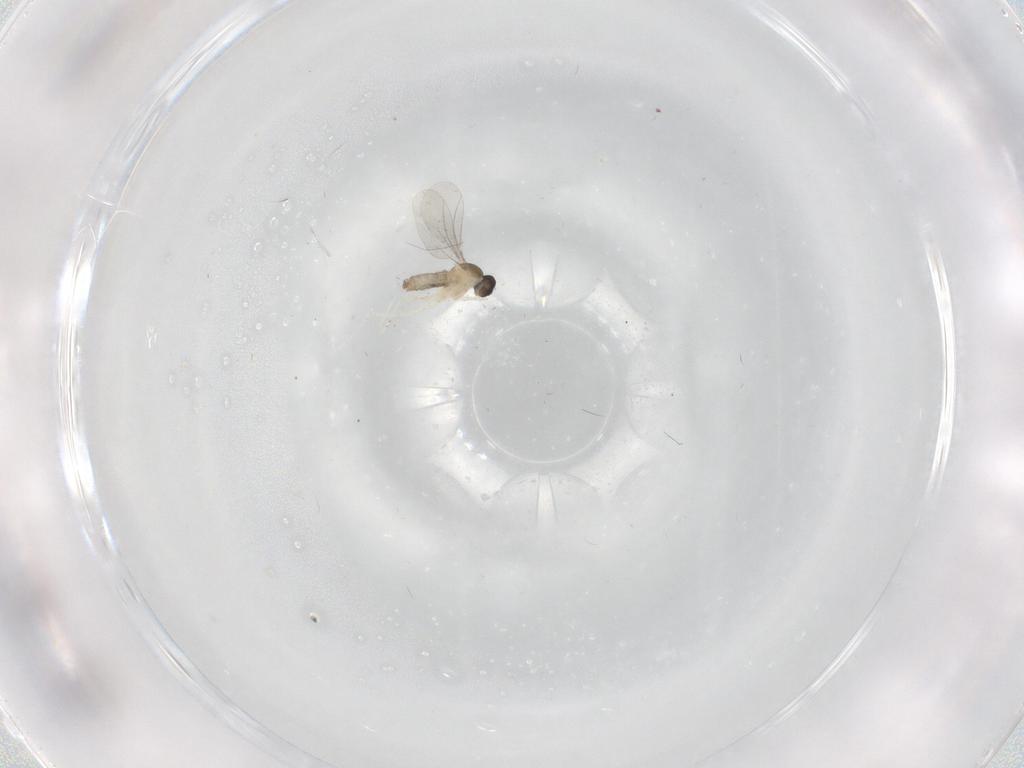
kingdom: Animalia
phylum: Arthropoda
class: Insecta
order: Diptera
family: Cecidomyiidae
